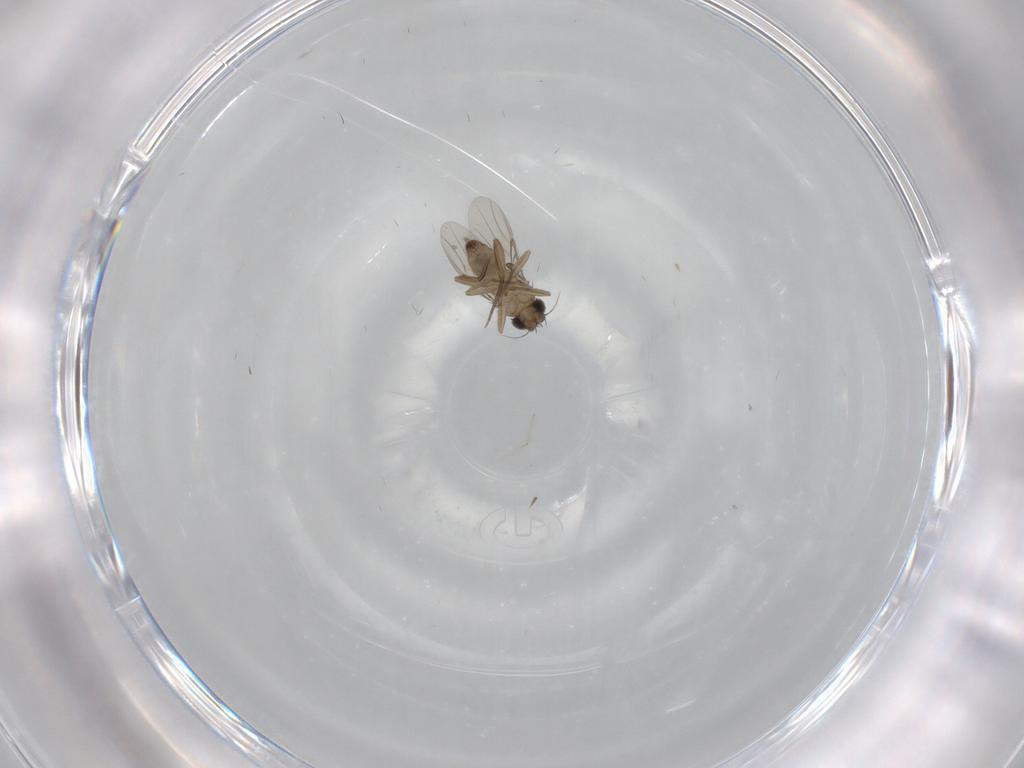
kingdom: Animalia
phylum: Arthropoda
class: Insecta
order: Diptera
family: Phoridae
